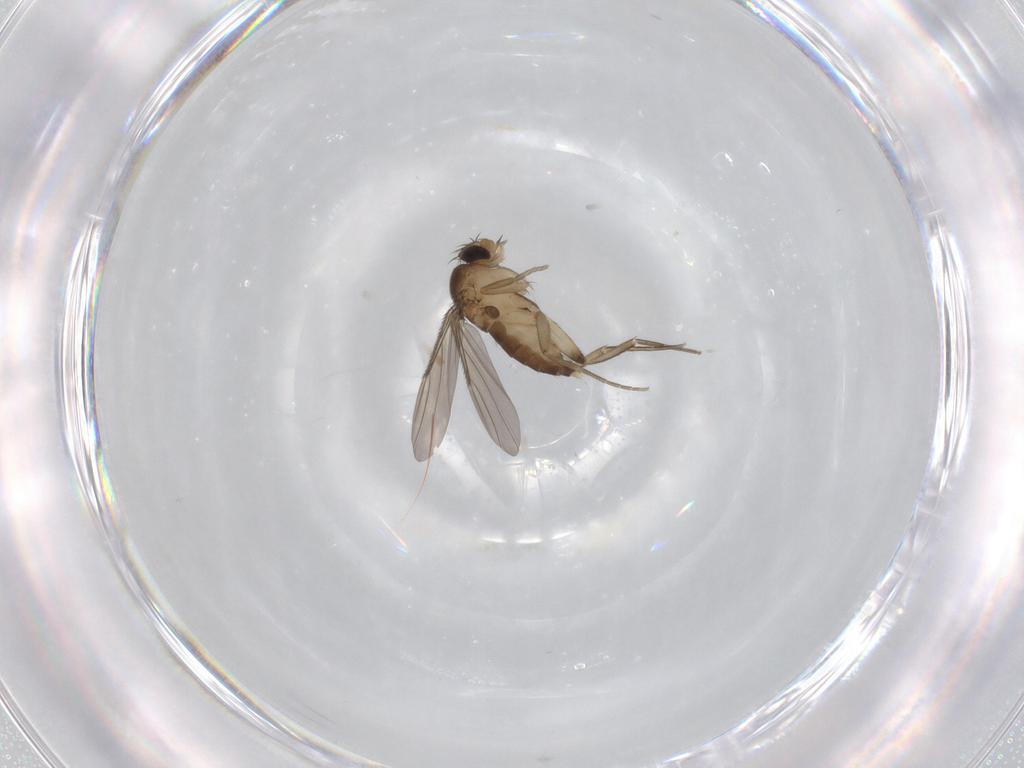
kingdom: Animalia
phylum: Arthropoda
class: Insecta
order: Diptera
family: Phoridae
